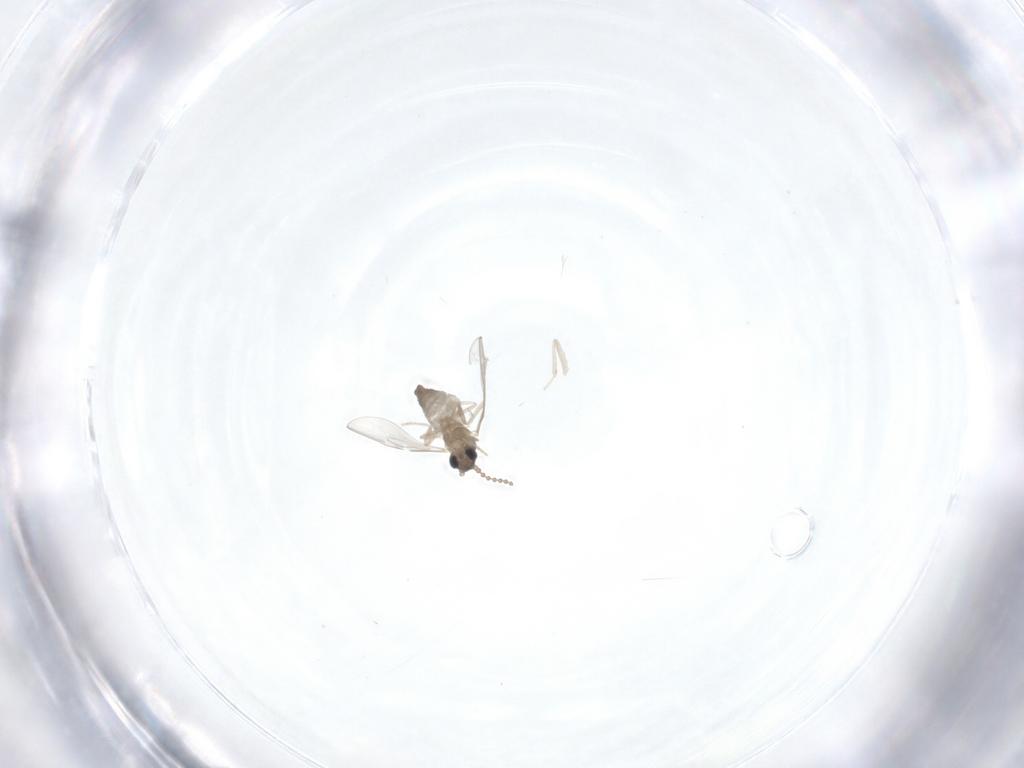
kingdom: Animalia
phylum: Arthropoda
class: Insecta
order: Diptera
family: Cecidomyiidae
